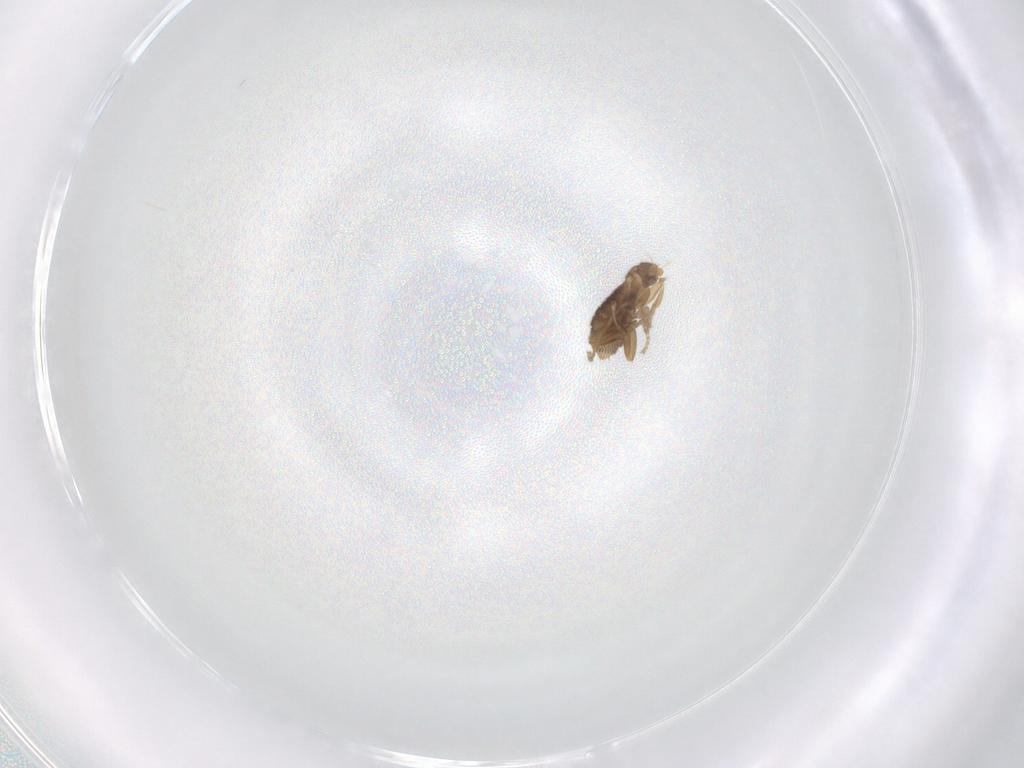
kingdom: Animalia
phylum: Arthropoda
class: Insecta
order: Diptera
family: Phoridae
